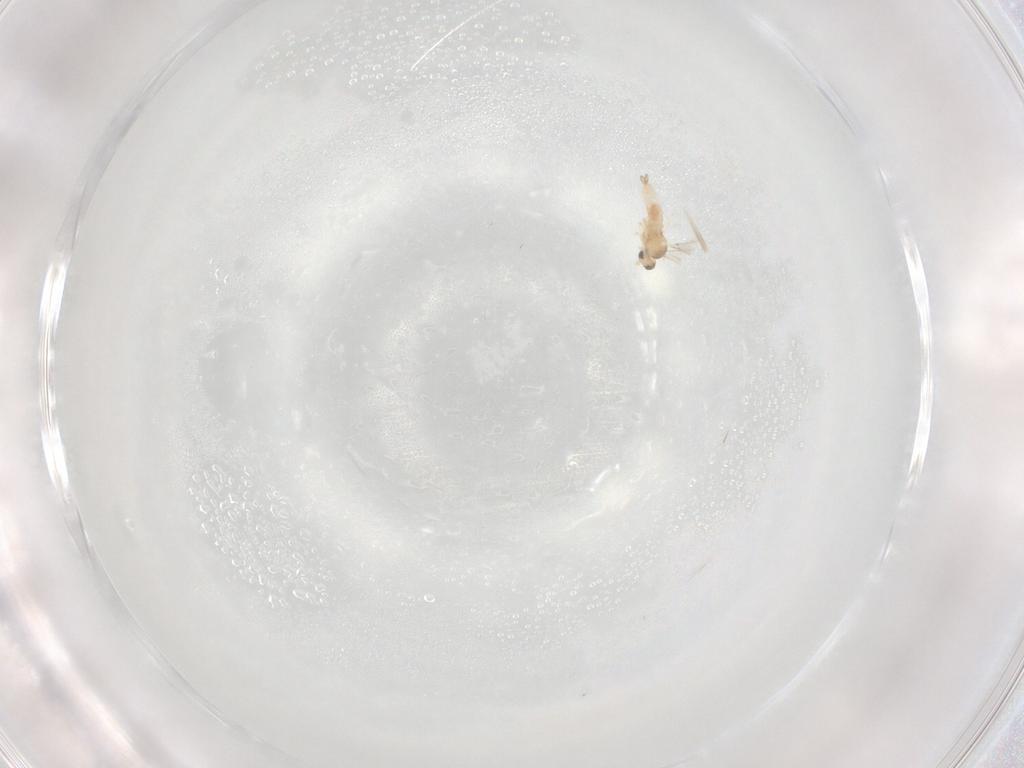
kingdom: Animalia
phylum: Arthropoda
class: Insecta
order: Diptera
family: Cecidomyiidae
